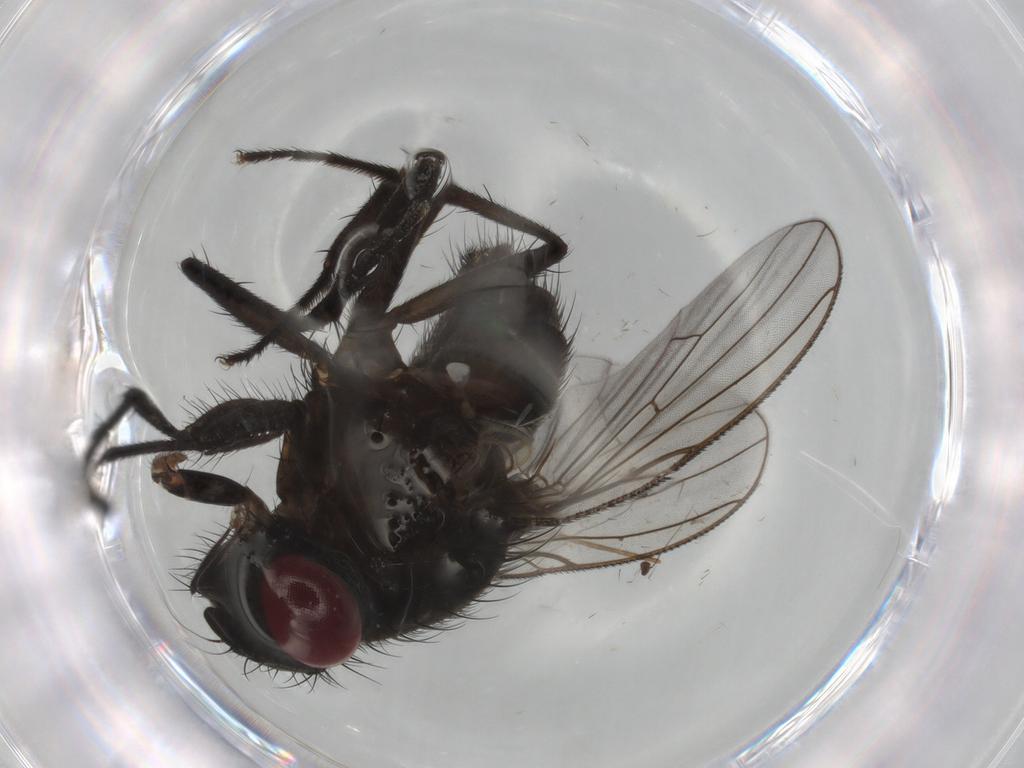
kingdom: Animalia
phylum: Arthropoda
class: Insecta
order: Diptera
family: Muscidae
